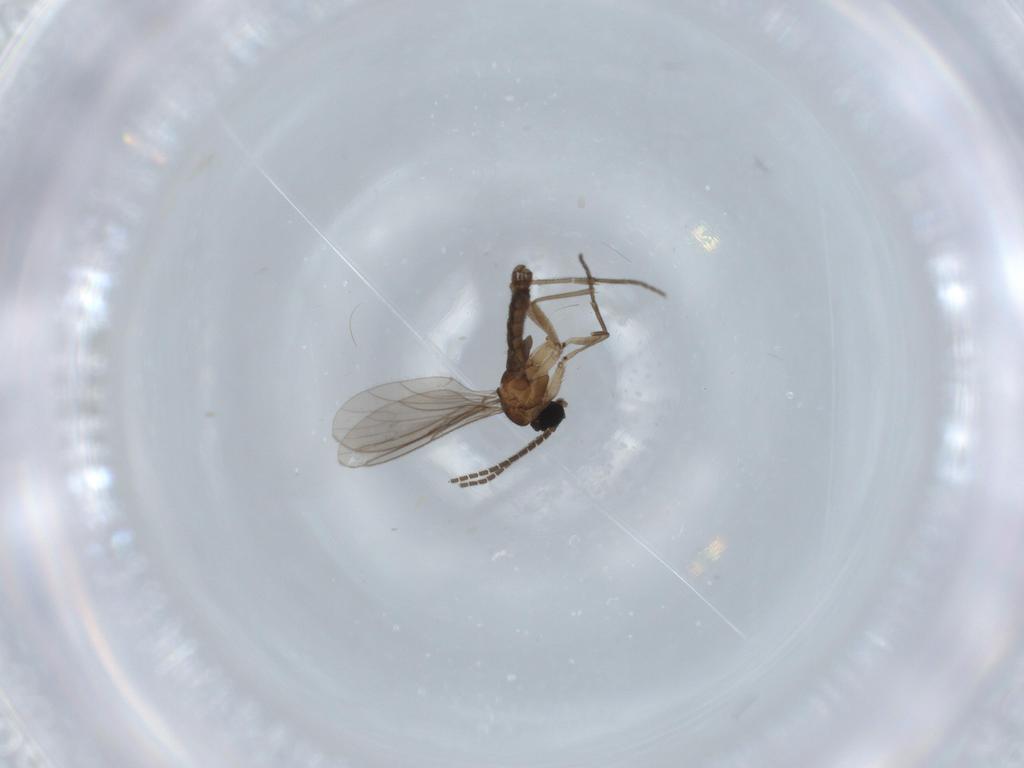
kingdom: Animalia
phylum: Arthropoda
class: Insecta
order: Diptera
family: Sciaridae
